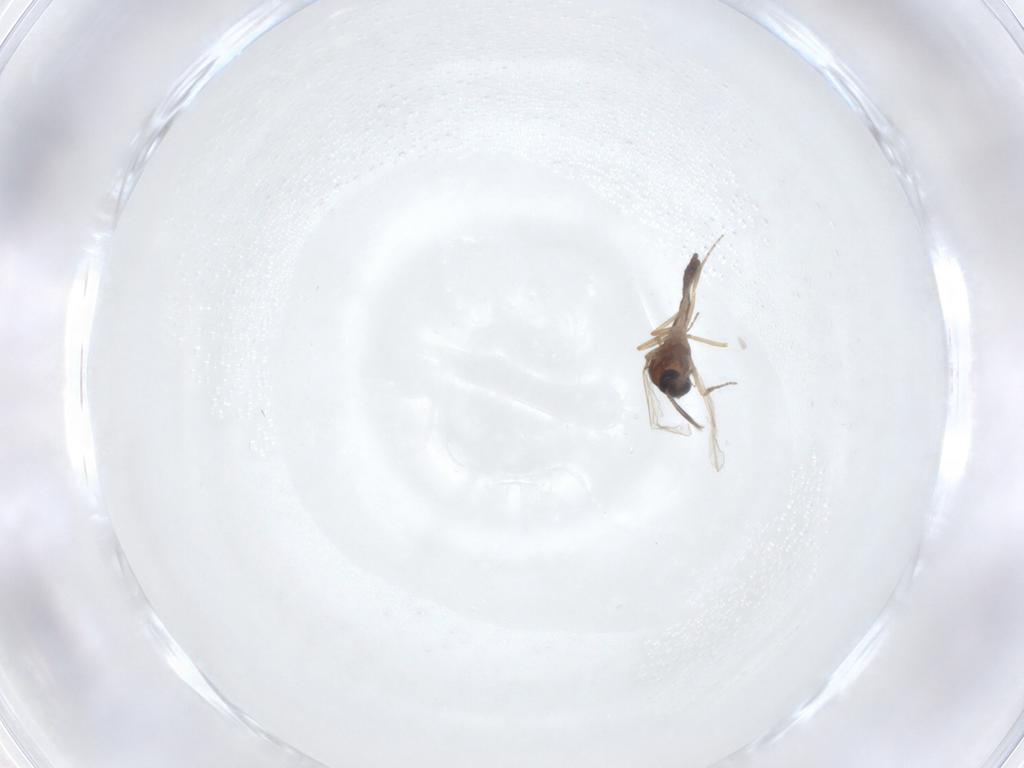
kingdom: Animalia
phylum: Arthropoda
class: Insecta
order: Diptera
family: Ceratopogonidae
